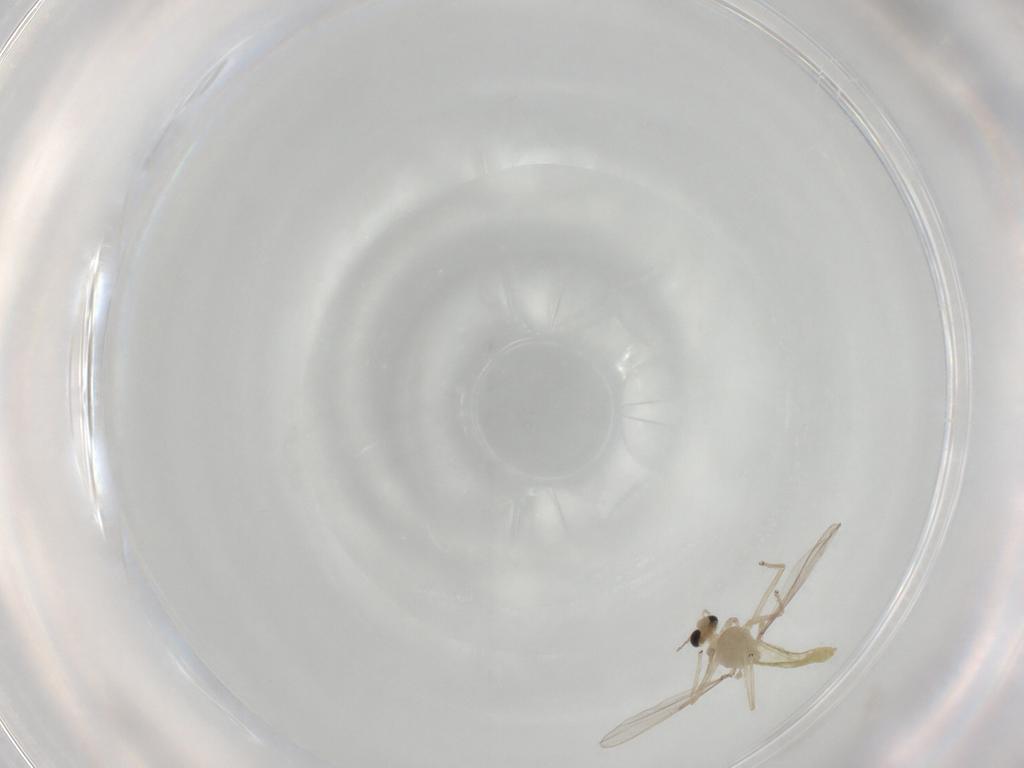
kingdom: Animalia
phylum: Arthropoda
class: Insecta
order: Diptera
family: Chironomidae
